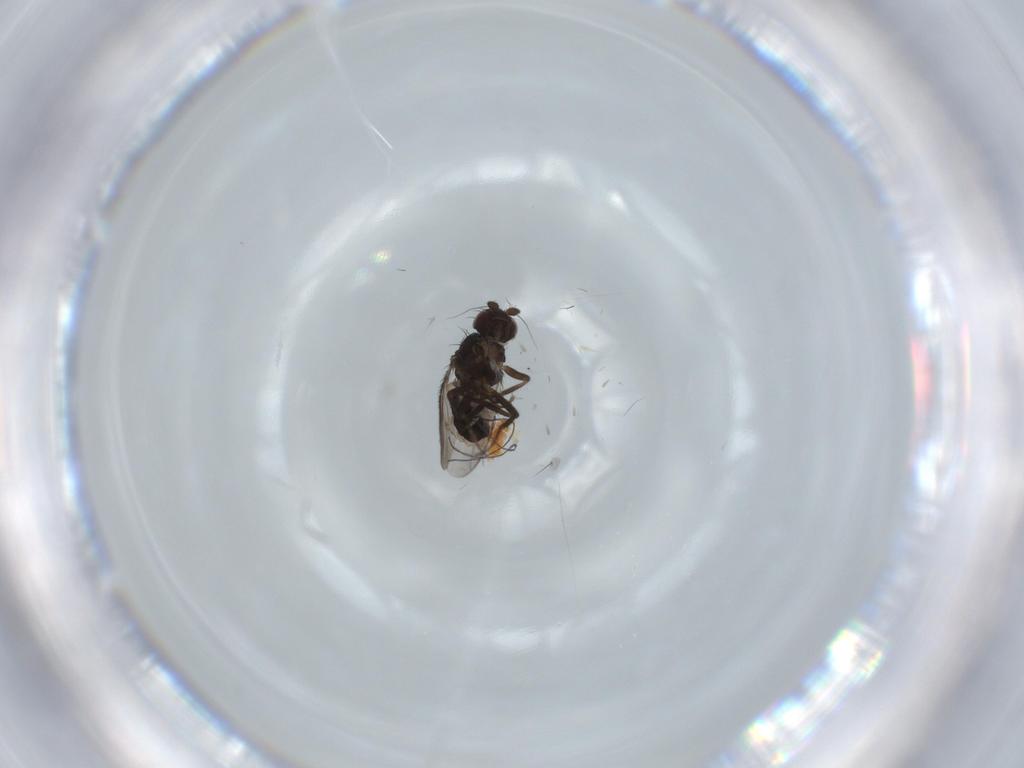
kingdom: Animalia
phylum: Arthropoda
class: Insecta
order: Diptera
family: Sphaeroceridae
